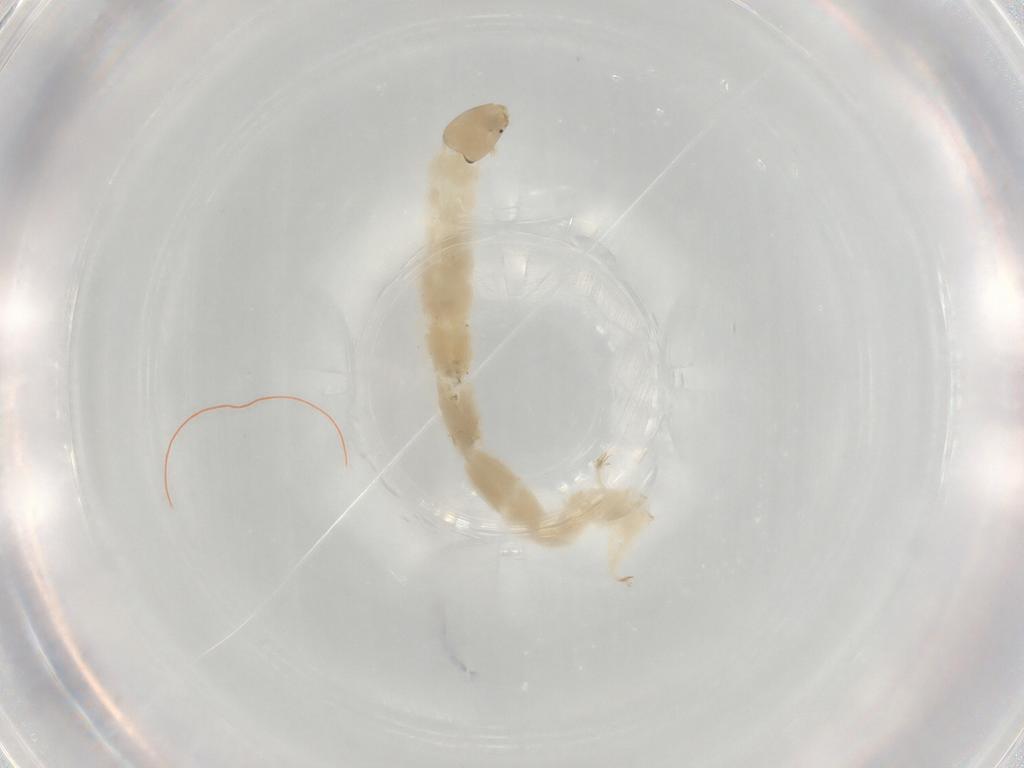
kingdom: Animalia
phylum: Arthropoda
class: Insecta
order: Diptera
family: Chironomidae
